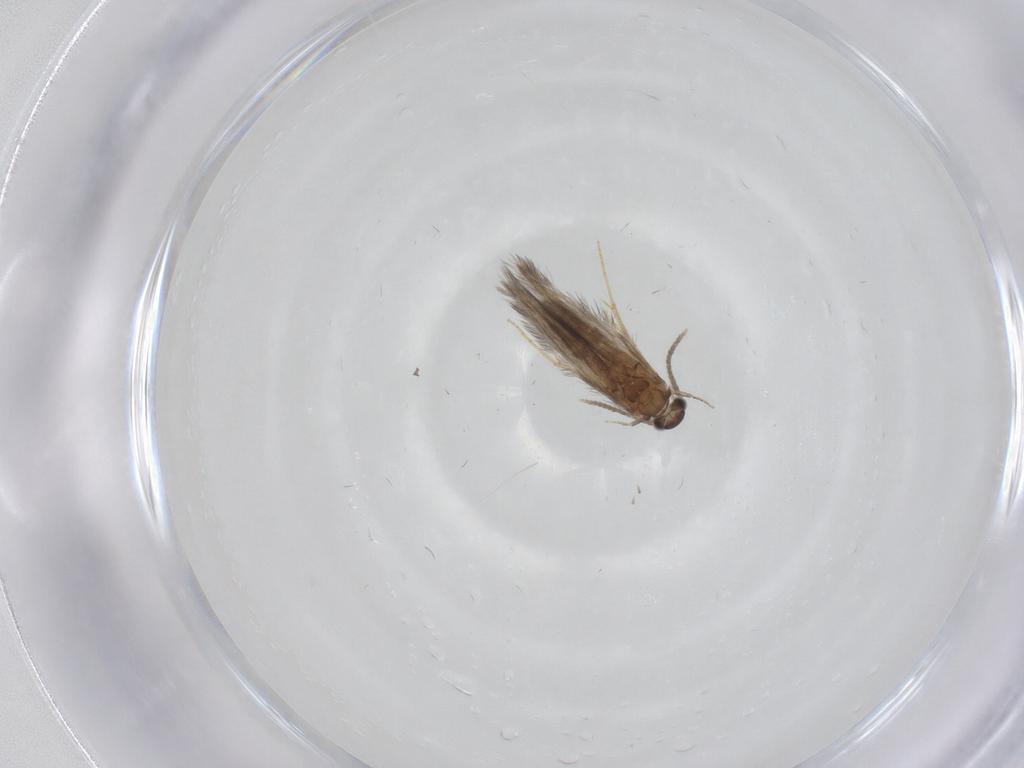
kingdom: Animalia
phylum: Arthropoda
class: Insecta
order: Trichoptera
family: Hydroptilidae
